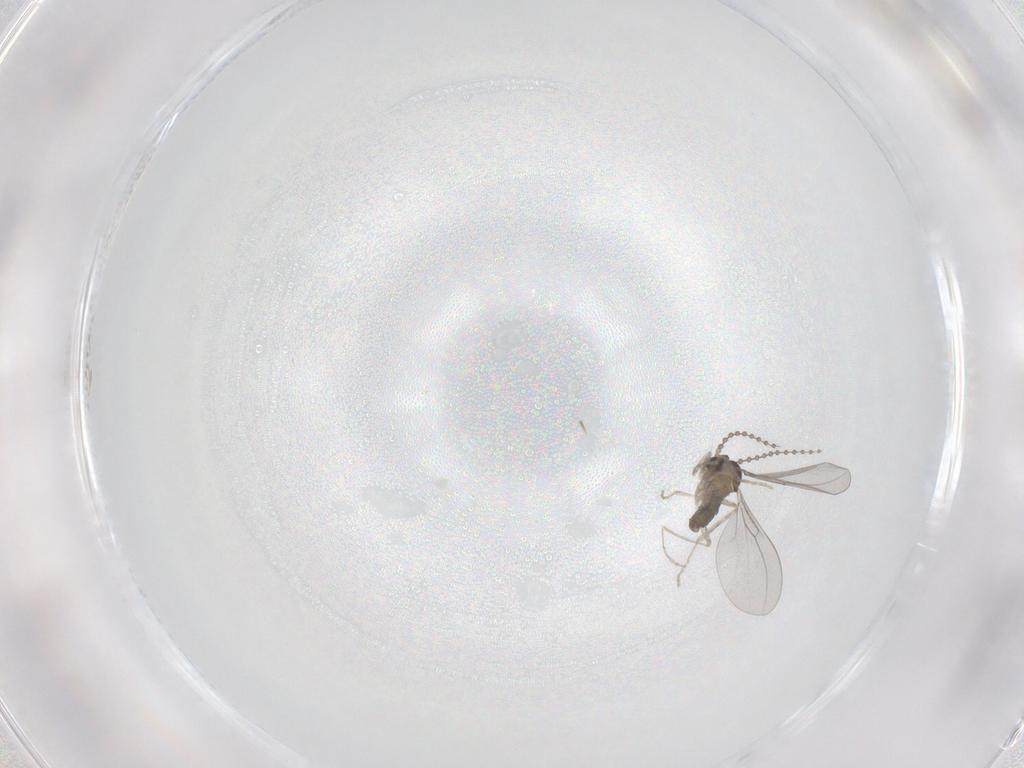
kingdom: Animalia
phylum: Arthropoda
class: Insecta
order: Diptera
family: Cecidomyiidae
